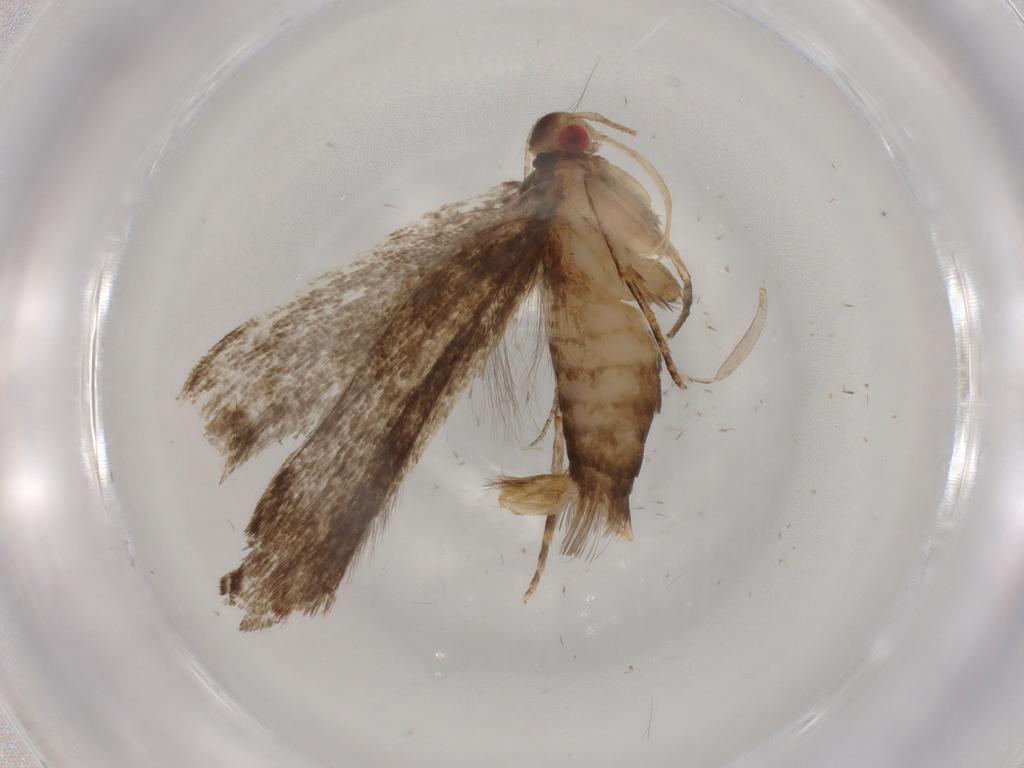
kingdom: Animalia
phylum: Arthropoda
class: Insecta
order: Lepidoptera
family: Gelechiidae
